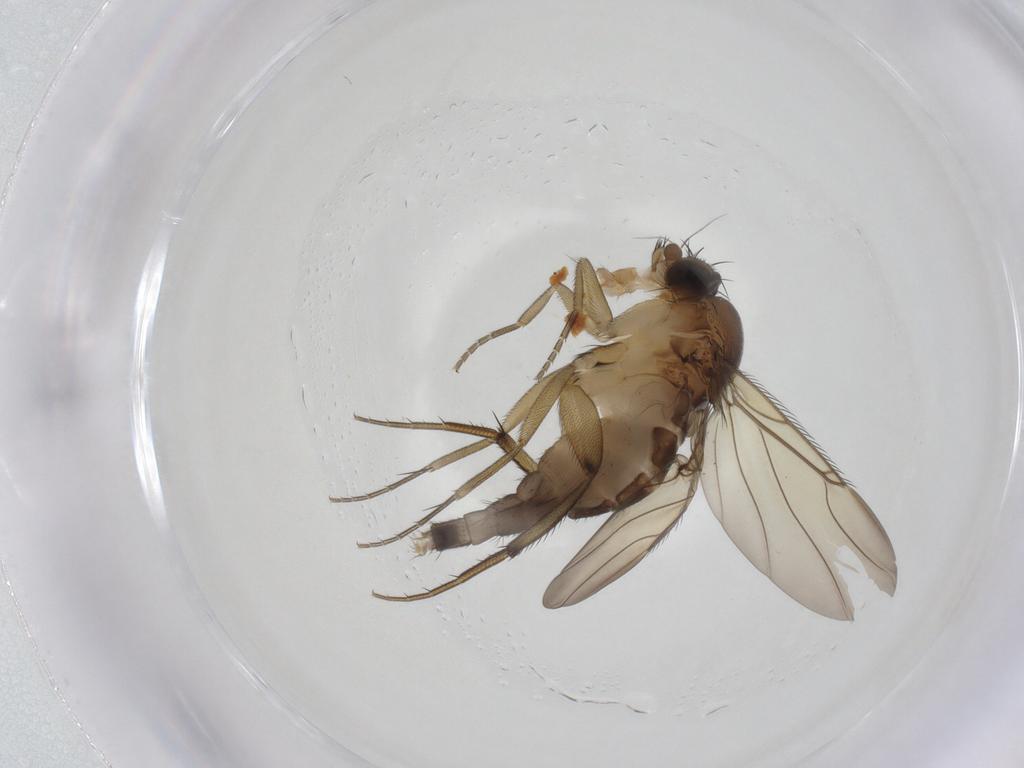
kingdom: Animalia
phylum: Arthropoda
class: Insecta
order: Diptera
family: Phoridae
